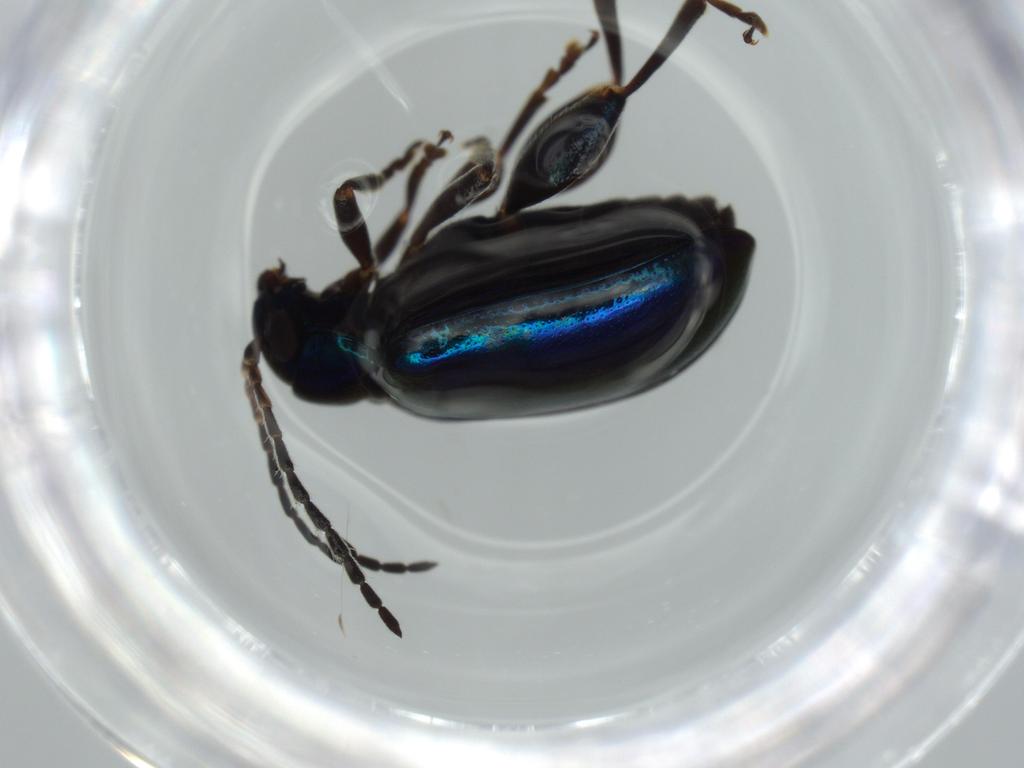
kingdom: Animalia
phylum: Arthropoda
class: Insecta
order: Coleoptera
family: Chrysomelidae
